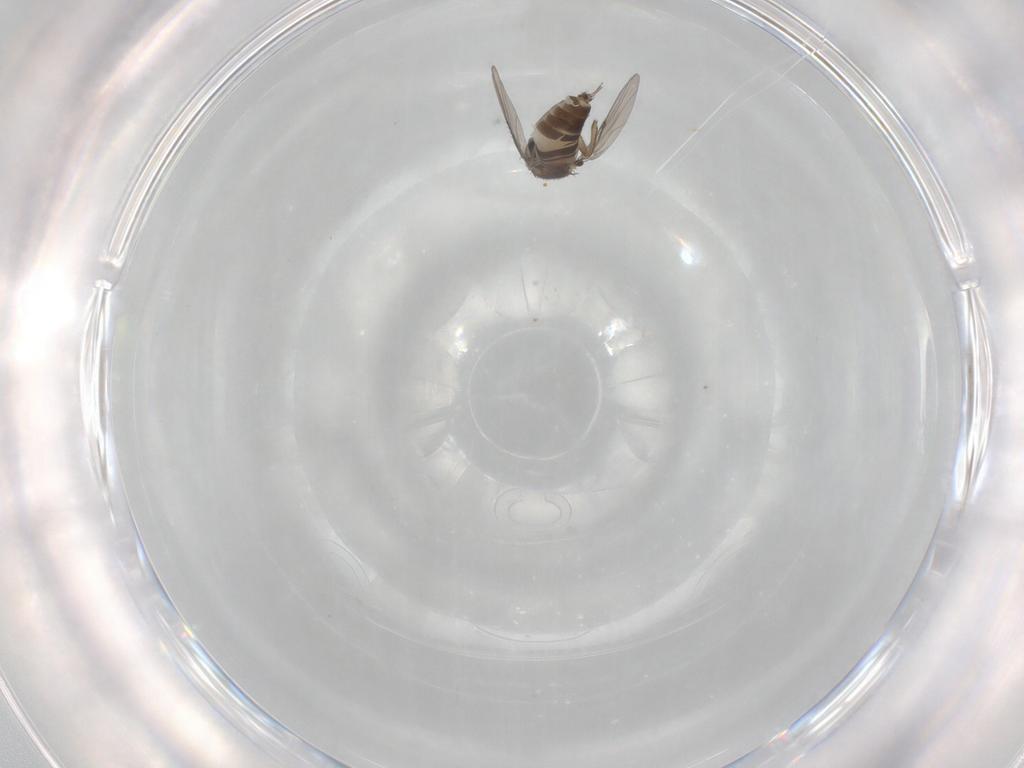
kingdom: Animalia
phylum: Arthropoda
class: Insecta
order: Diptera
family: Phoridae
